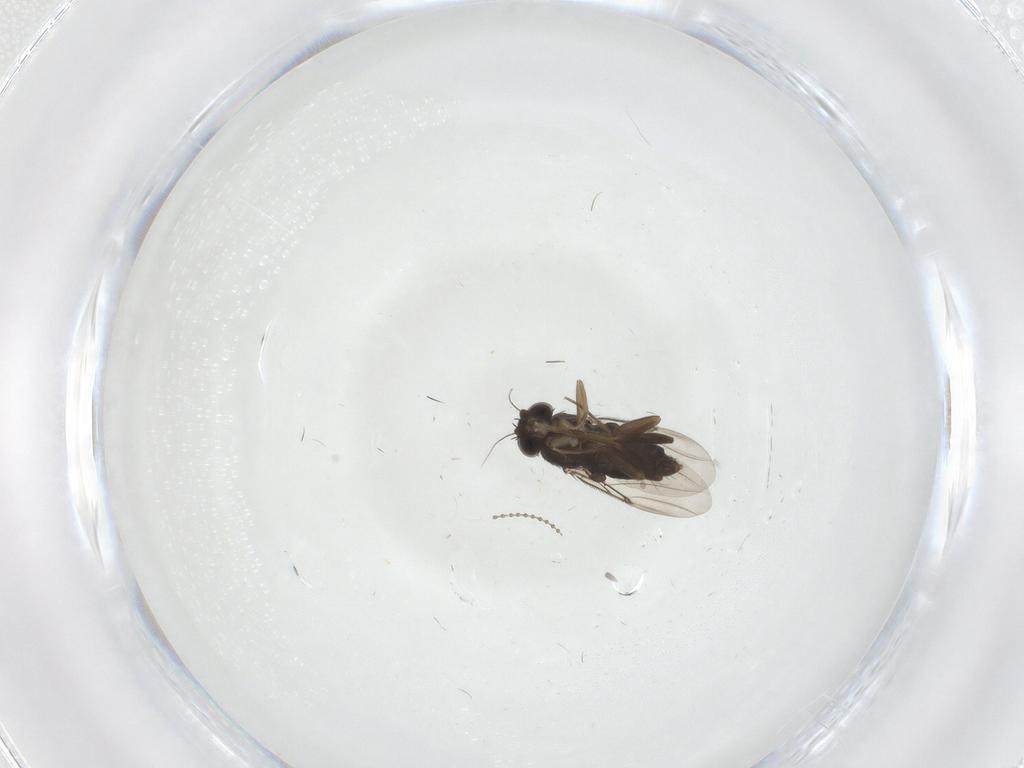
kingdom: Animalia
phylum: Arthropoda
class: Insecta
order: Diptera
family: Phoridae
